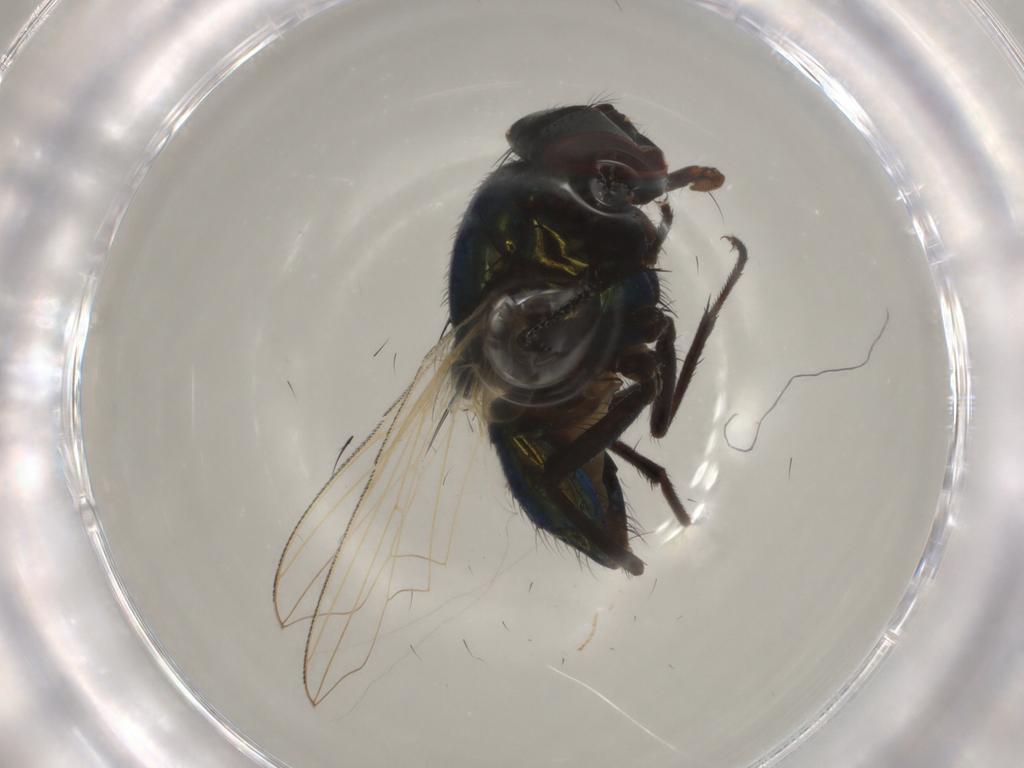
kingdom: Animalia
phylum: Arthropoda
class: Insecta
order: Diptera
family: Muscidae
